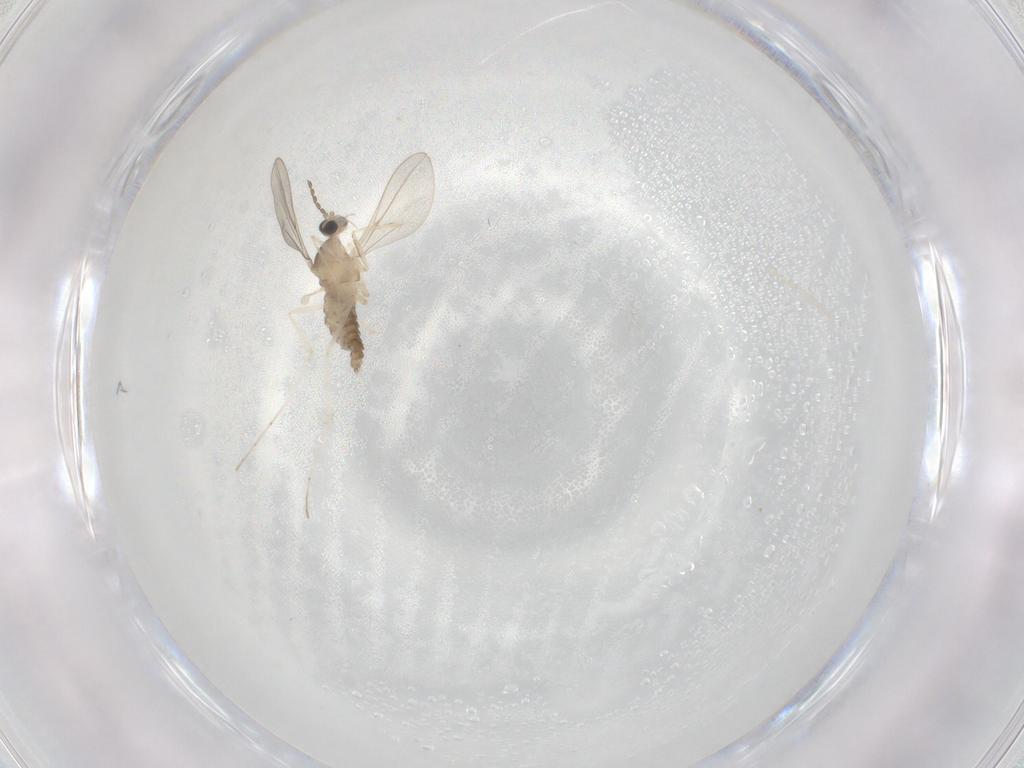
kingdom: Animalia
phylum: Arthropoda
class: Insecta
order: Diptera
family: Cecidomyiidae
